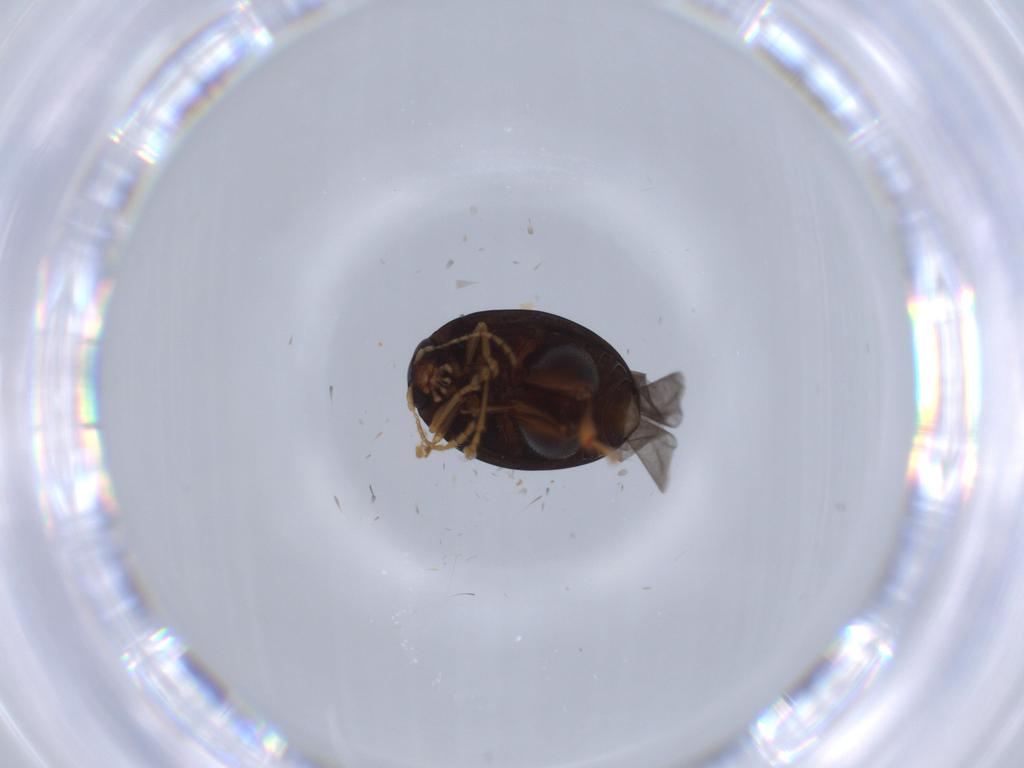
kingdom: Animalia
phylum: Arthropoda
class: Insecta
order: Coleoptera
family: Chrysomelidae
